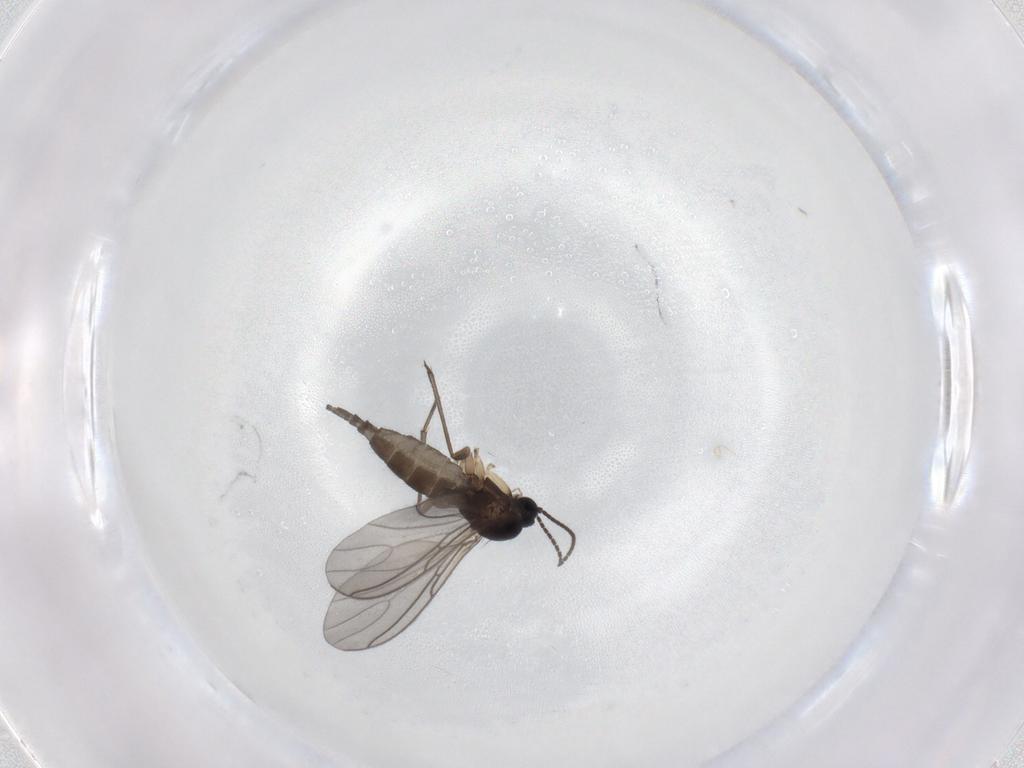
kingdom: Animalia
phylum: Arthropoda
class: Insecta
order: Diptera
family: Sciaridae
